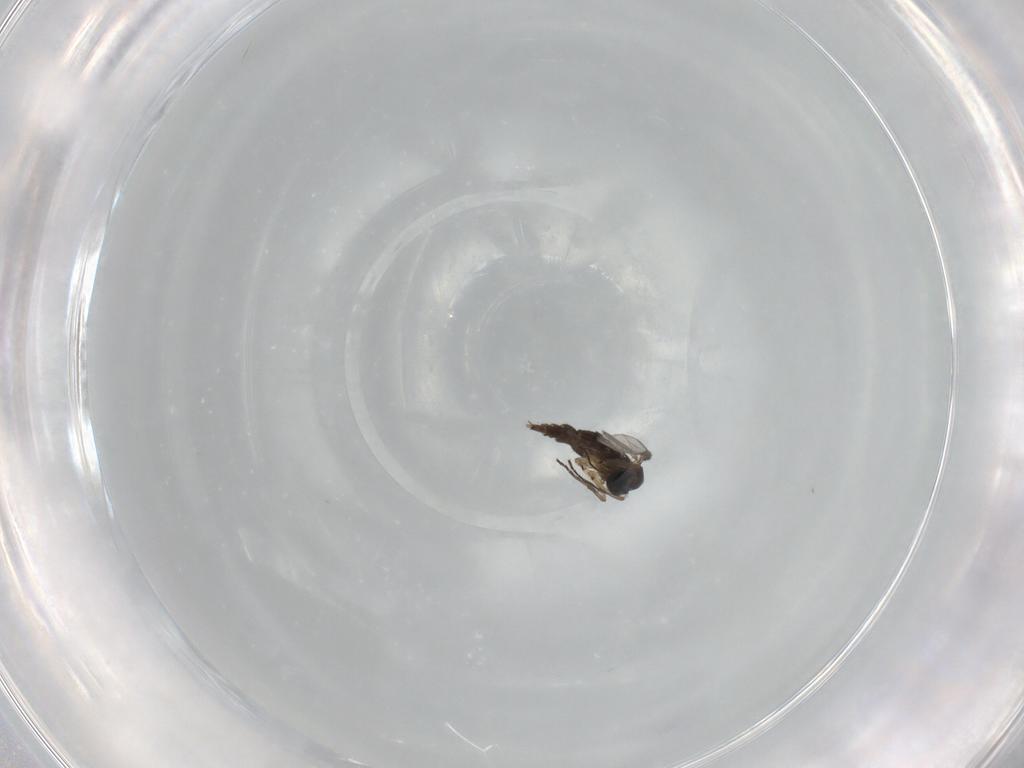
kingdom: Animalia
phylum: Arthropoda
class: Insecta
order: Diptera
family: Sciaridae
